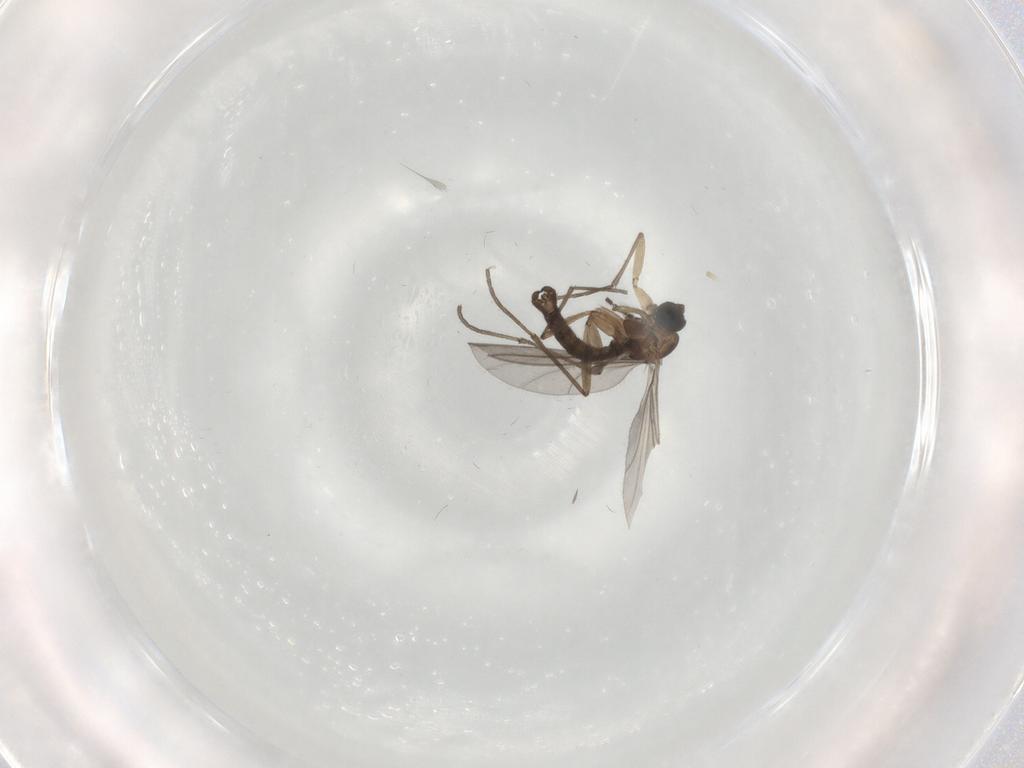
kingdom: Animalia
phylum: Arthropoda
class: Insecta
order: Diptera
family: Sciaridae
